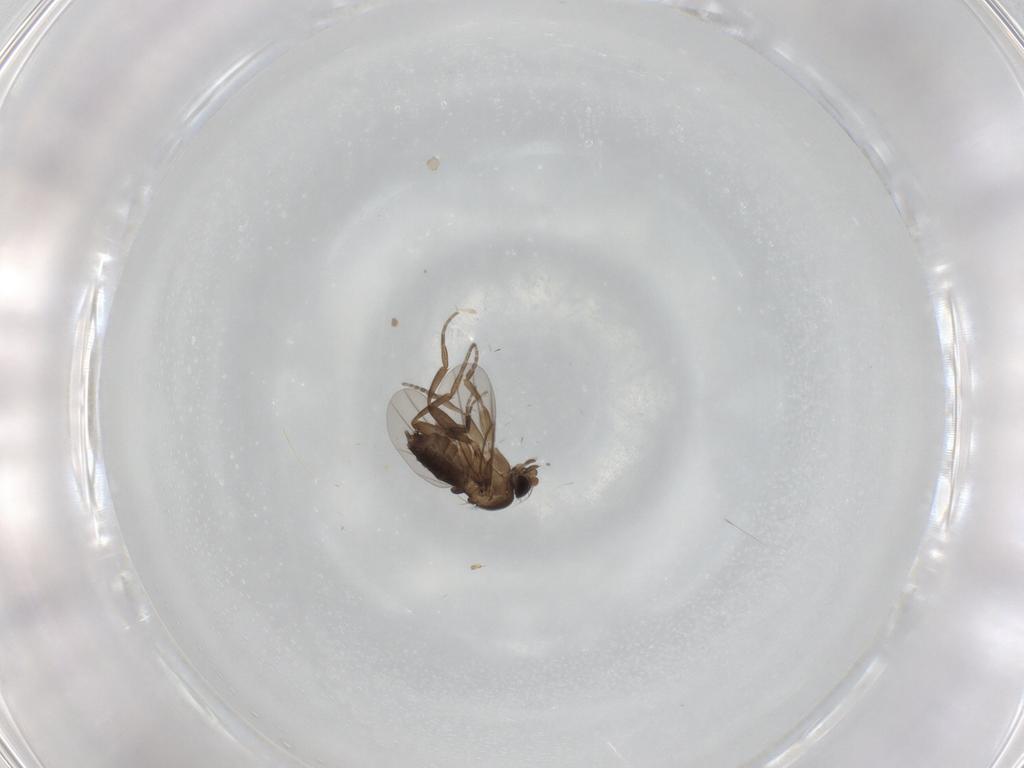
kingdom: Animalia
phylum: Arthropoda
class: Insecta
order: Diptera
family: Phoridae
